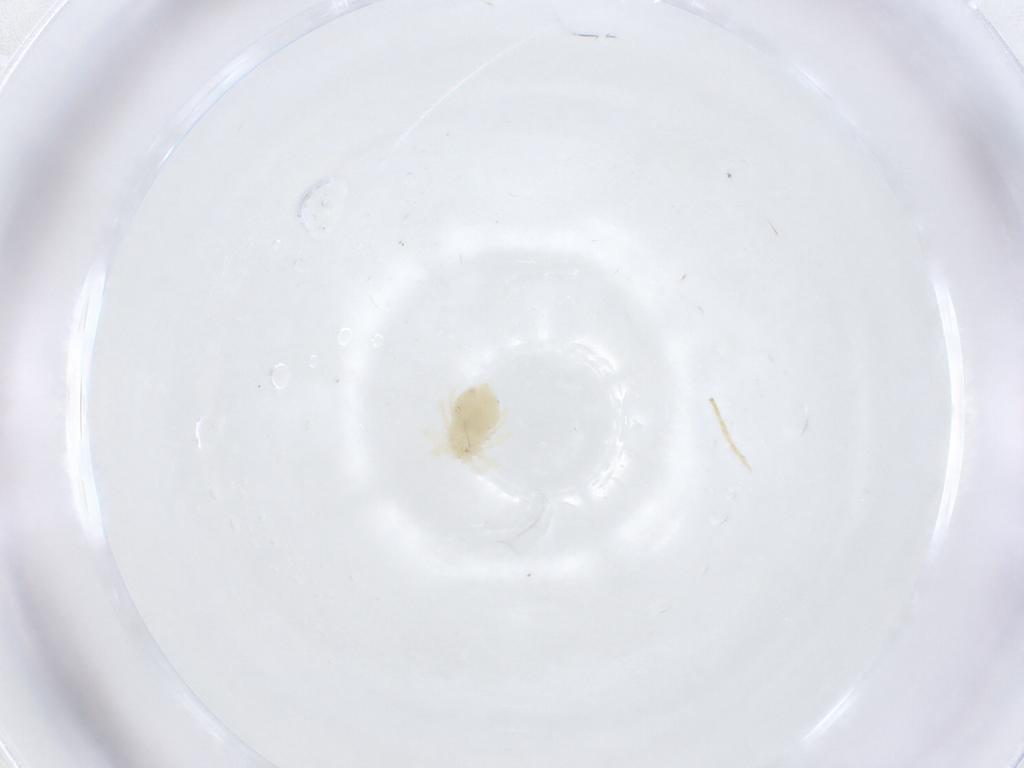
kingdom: Animalia
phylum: Arthropoda
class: Arachnida
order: Trombidiformes
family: Anystidae
